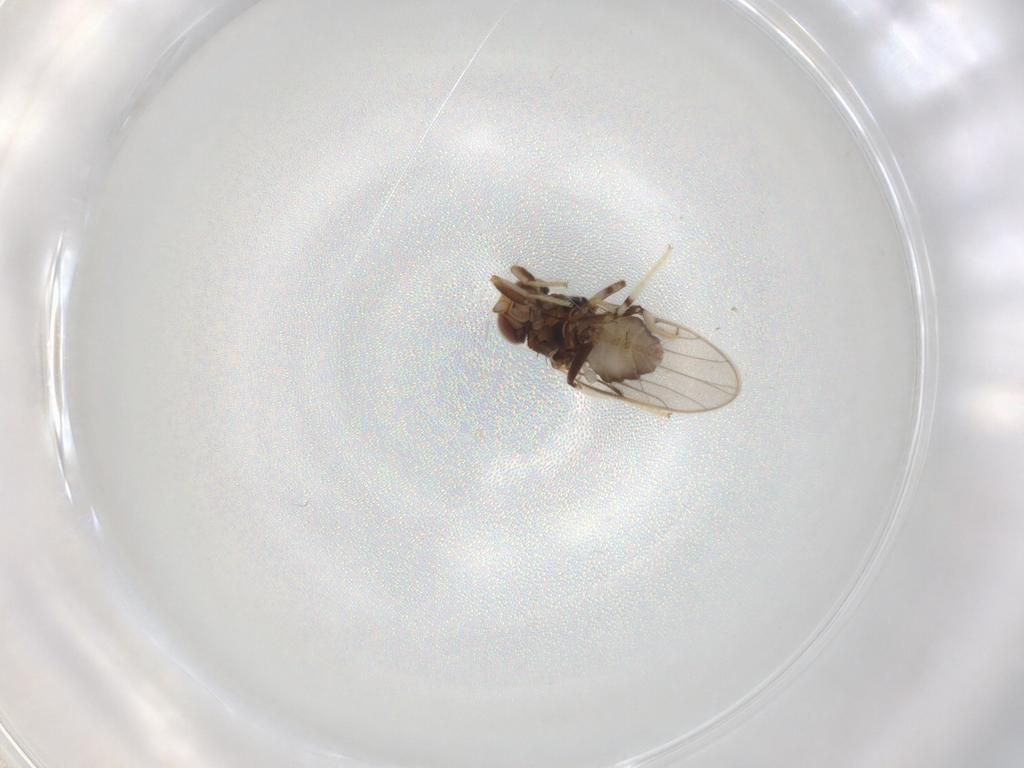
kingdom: Animalia
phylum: Arthropoda
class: Insecta
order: Diptera
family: Chloropidae
